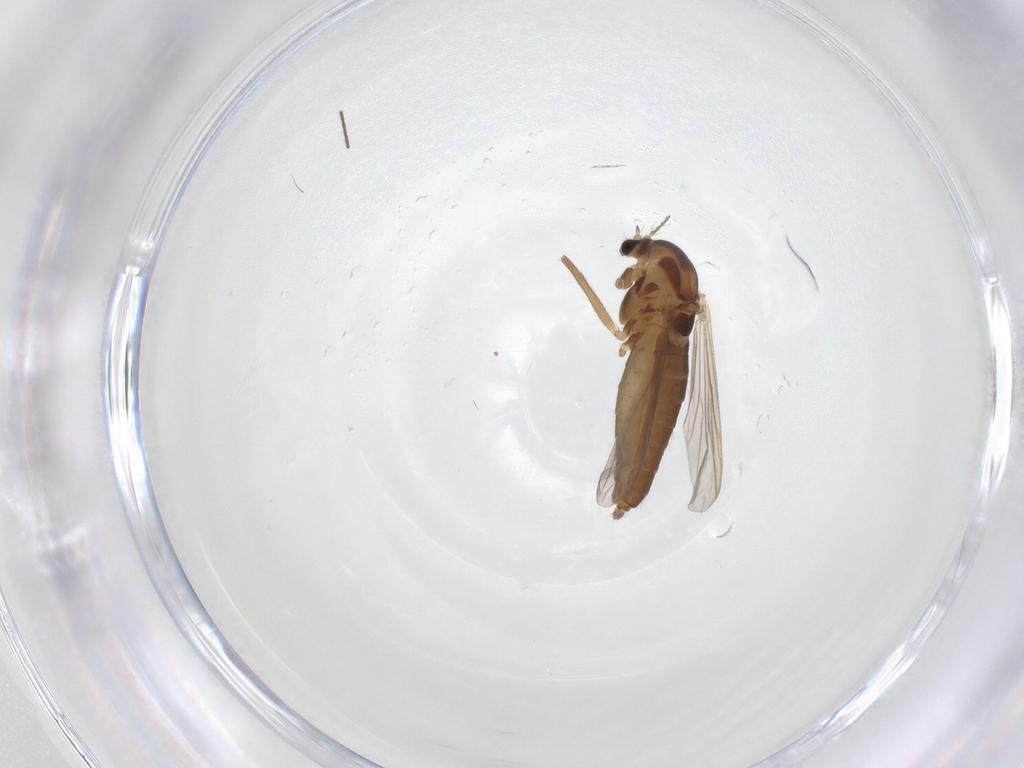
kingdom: Animalia
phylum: Arthropoda
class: Insecta
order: Diptera
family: Chironomidae
